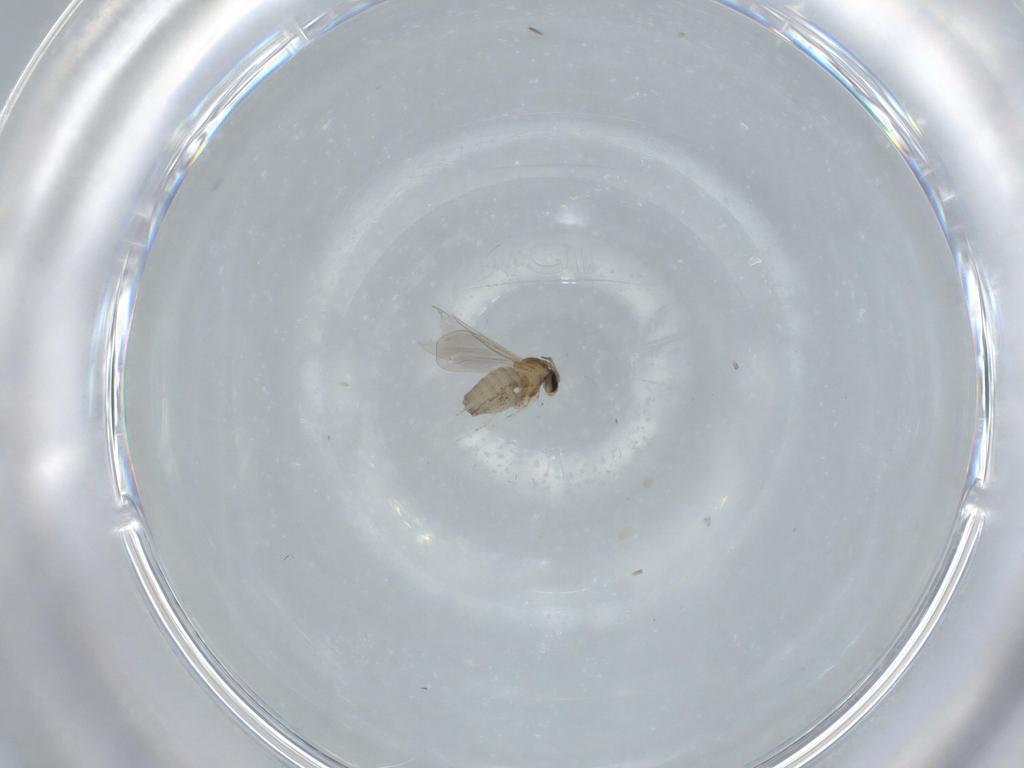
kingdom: Animalia
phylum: Arthropoda
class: Insecta
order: Diptera
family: Cecidomyiidae
